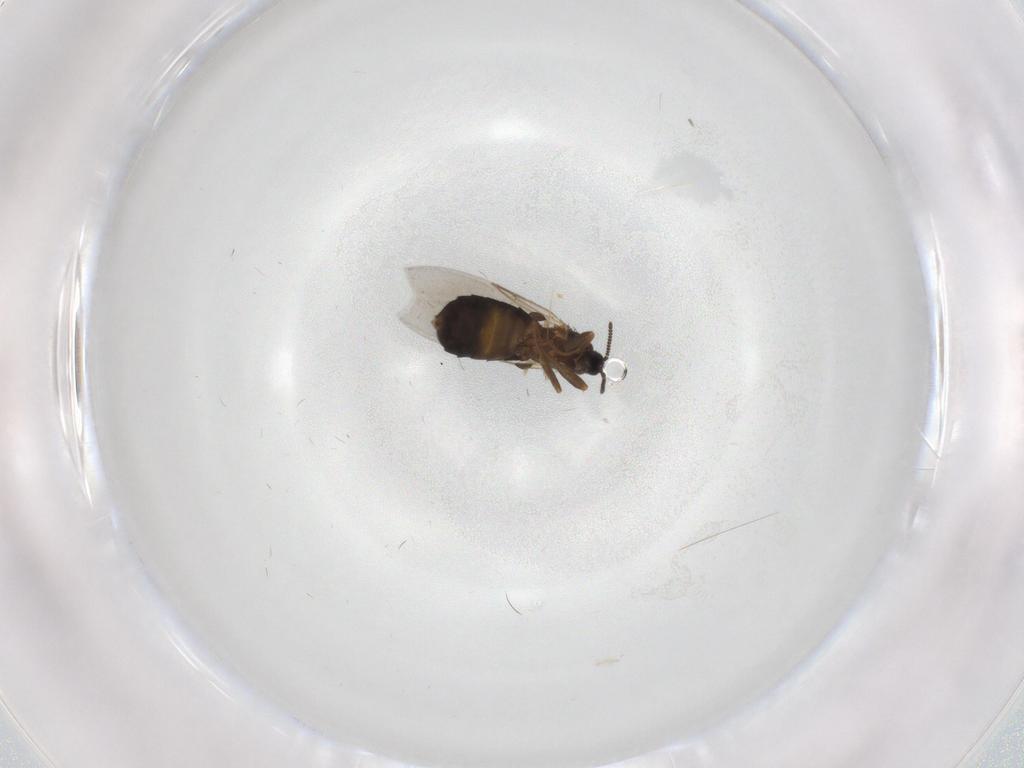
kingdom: Animalia
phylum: Arthropoda
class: Insecta
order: Diptera
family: Scatopsidae
